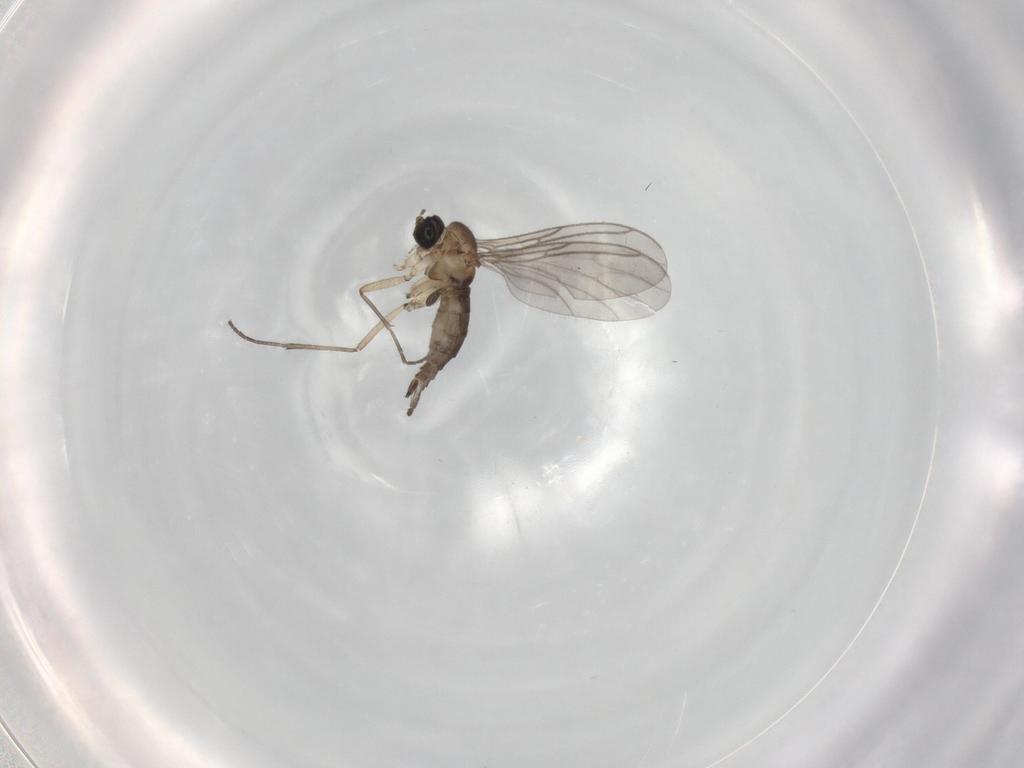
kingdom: Animalia
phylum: Arthropoda
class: Insecta
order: Diptera
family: Sciaridae
